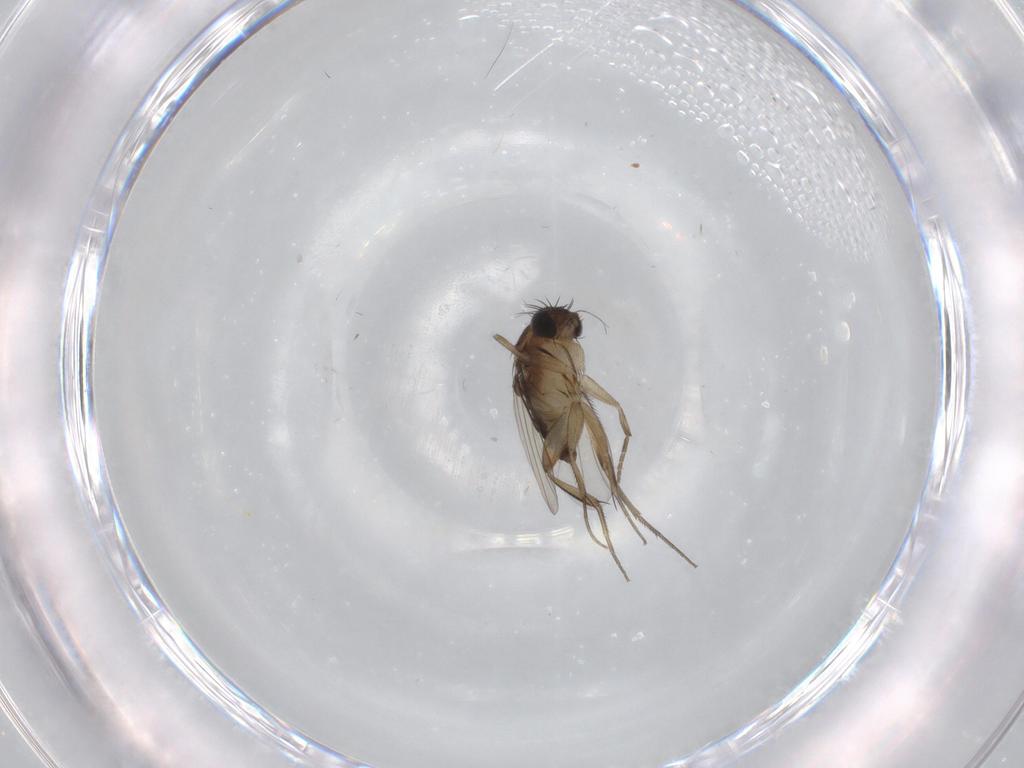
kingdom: Animalia
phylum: Arthropoda
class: Insecta
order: Diptera
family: Phoridae
